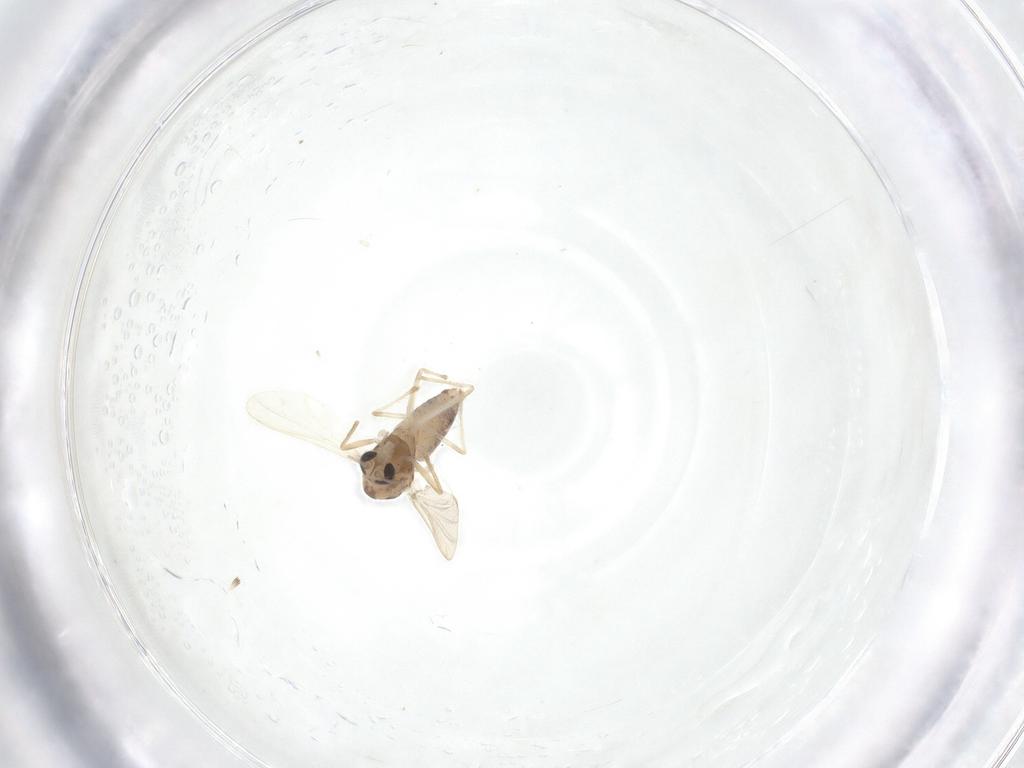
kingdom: Animalia
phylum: Arthropoda
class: Insecta
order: Diptera
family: Chironomidae
